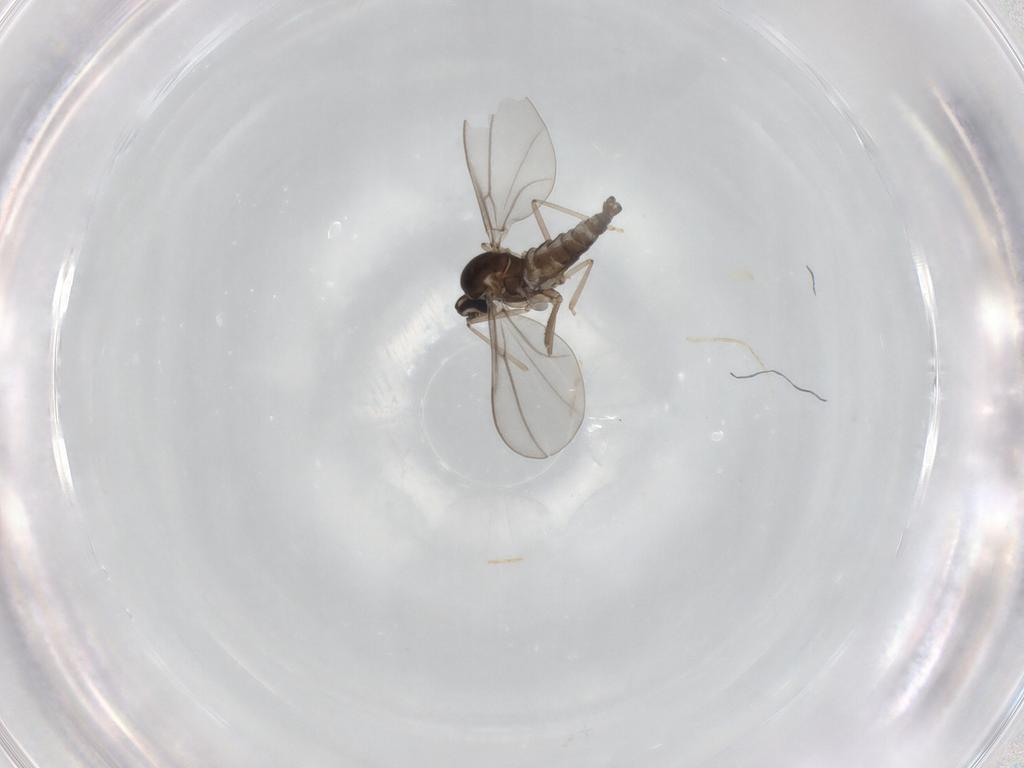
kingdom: Animalia
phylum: Arthropoda
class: Insecta
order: Diptera
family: Cecidomyiidae
